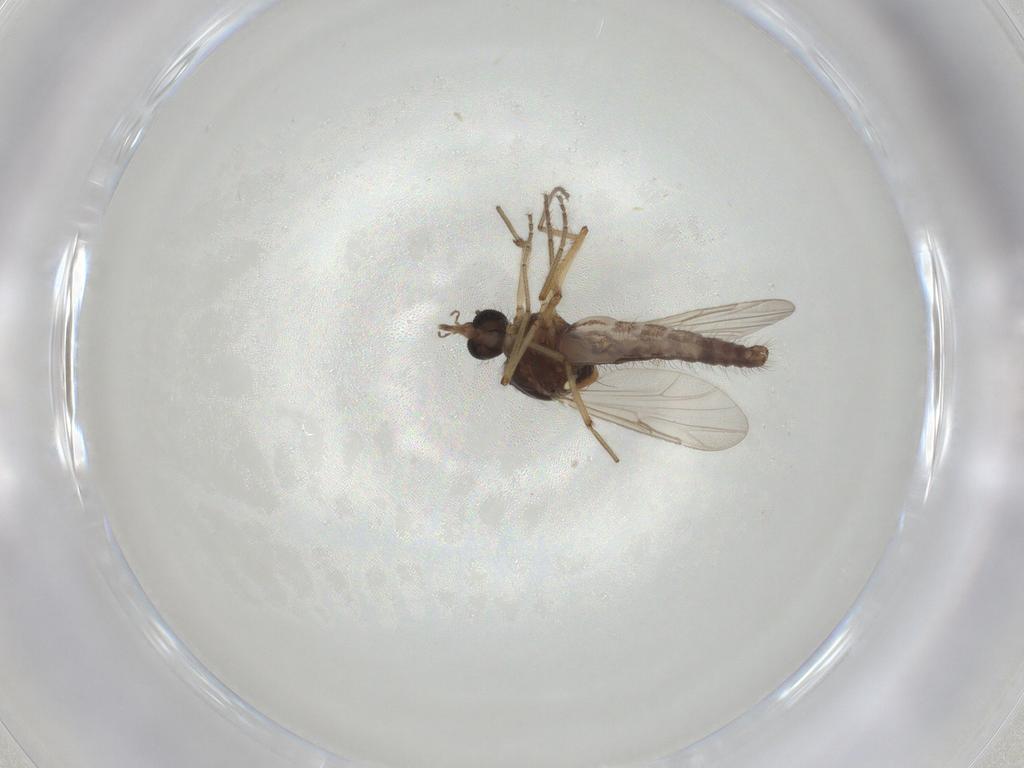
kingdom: Animalia
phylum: Arthropoda
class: Insecta
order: Diptera
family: Ceratopogonidae
